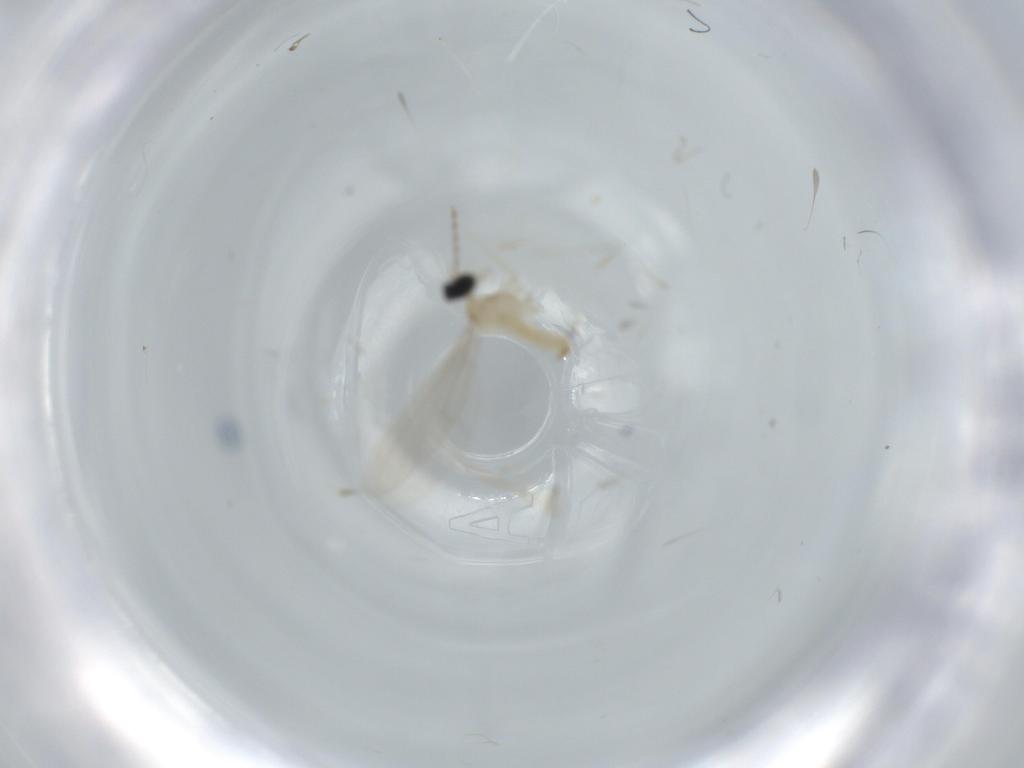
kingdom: Animalia
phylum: Arthropoda
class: Insecta
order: Diptera
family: Cecidomyiidae
